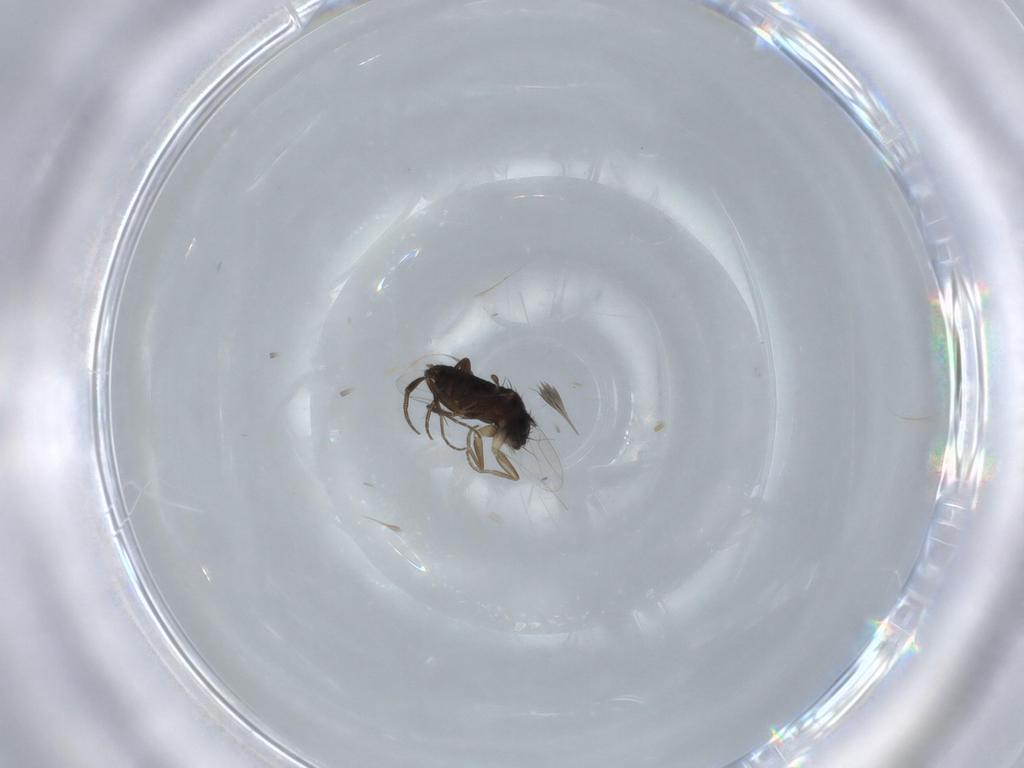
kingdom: Animalia
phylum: Arthropoda
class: Insecta
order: Diptera
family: Phoridae
